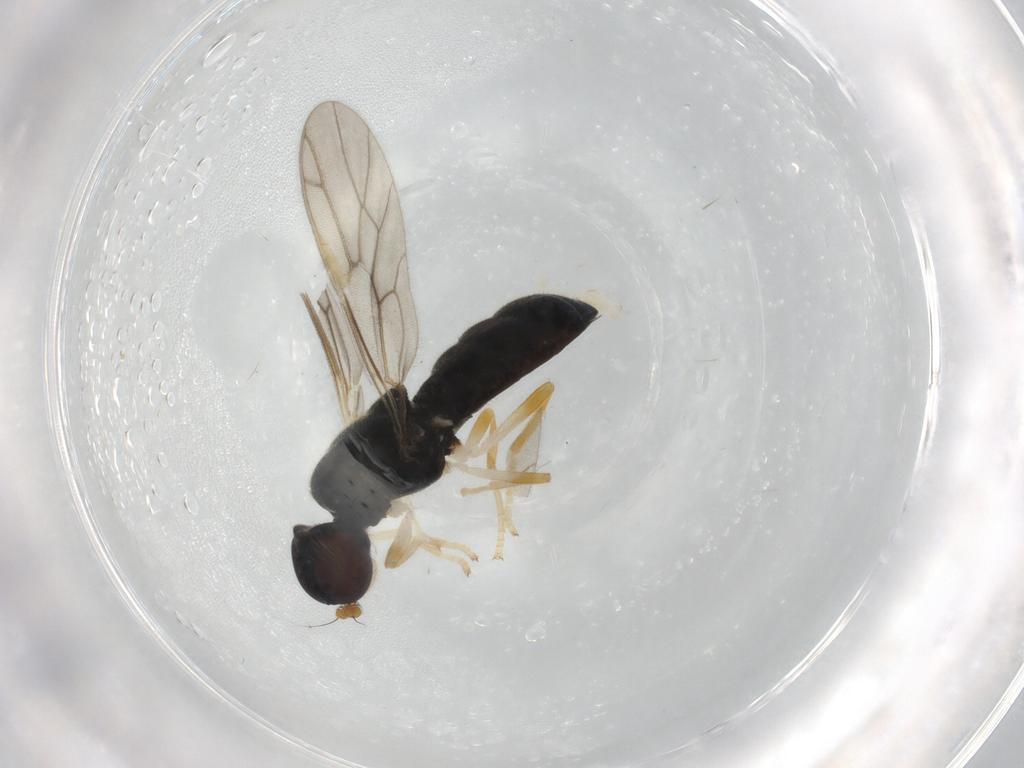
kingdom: Animalia
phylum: Arthropoda
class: Insecta
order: Diptera
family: Stratiomyidae
